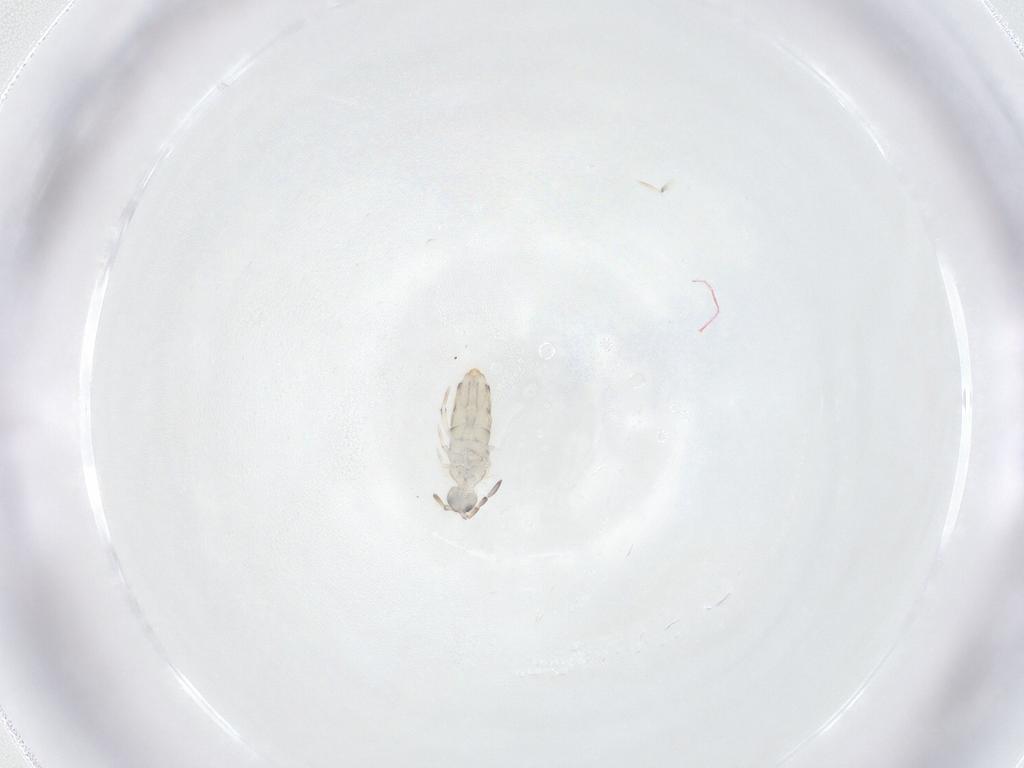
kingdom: Animalia
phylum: Arthropoda
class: Collembola
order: Entomobryomorpha
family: Entomobryidae
